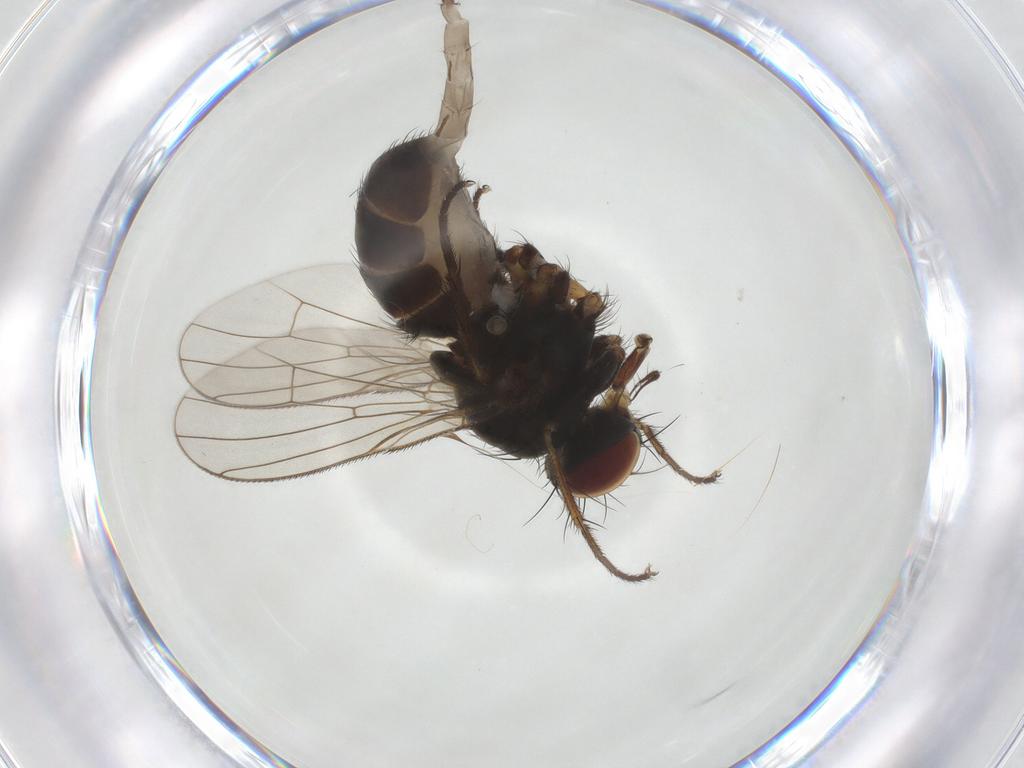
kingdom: Animalia
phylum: Arthropoda
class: Insecta
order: Diptera
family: Muscidae
